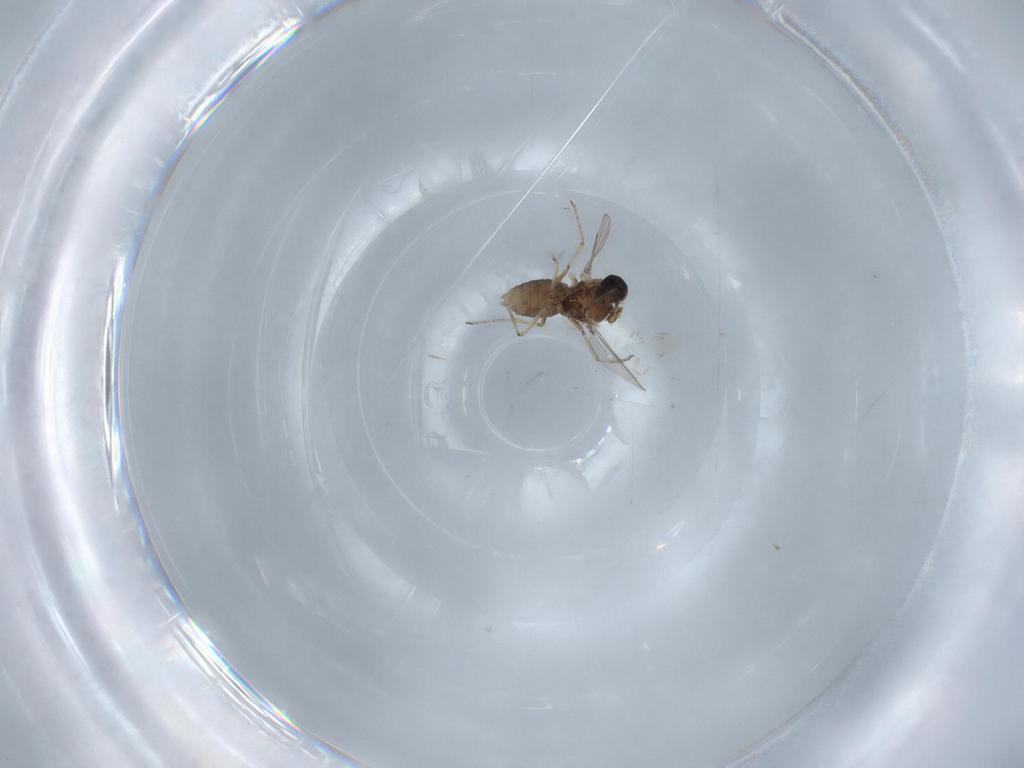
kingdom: Animalia
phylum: Arthropoda
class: Insecta
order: Diptera
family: Ceratopogonidae
